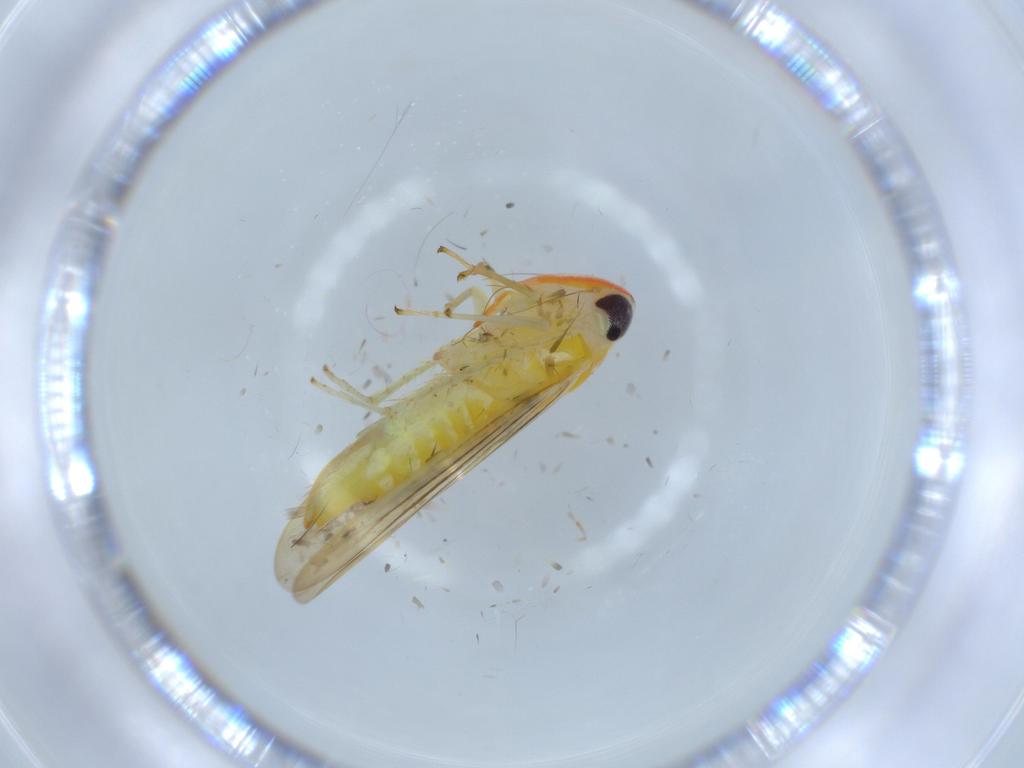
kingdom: Animalia
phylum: Arthropoda
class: Insecta
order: Hemiptera
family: Cicadellidae
